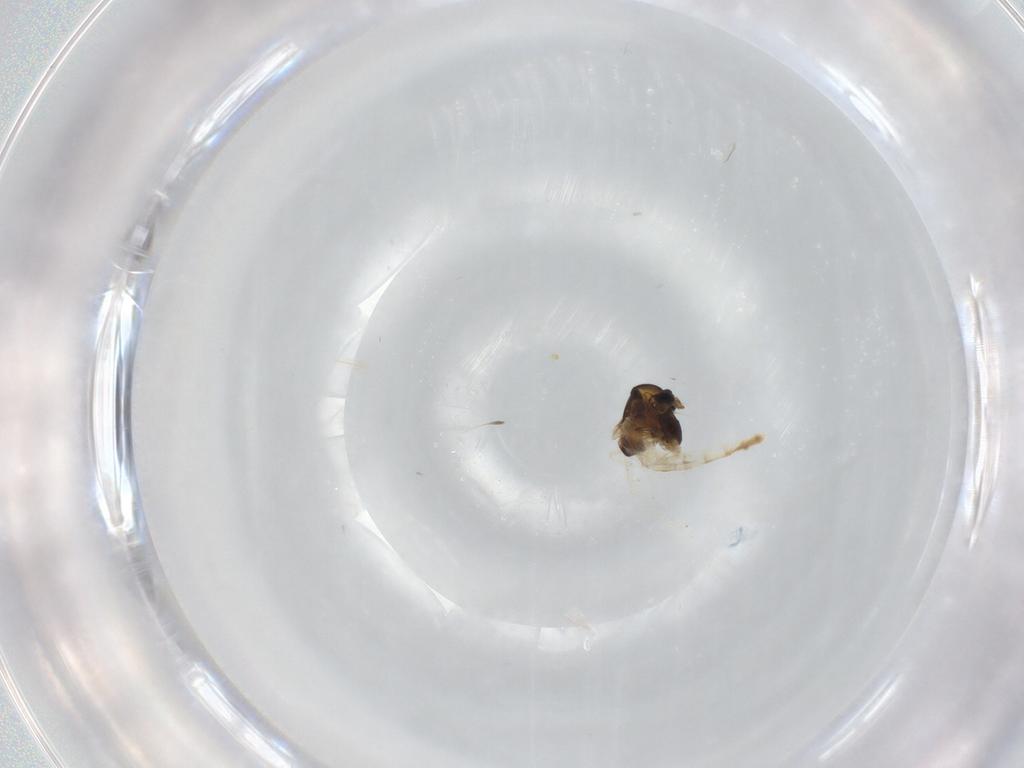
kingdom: Animalia
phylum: Arthropoda
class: Insecta
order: Diptera
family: Chironomidae
